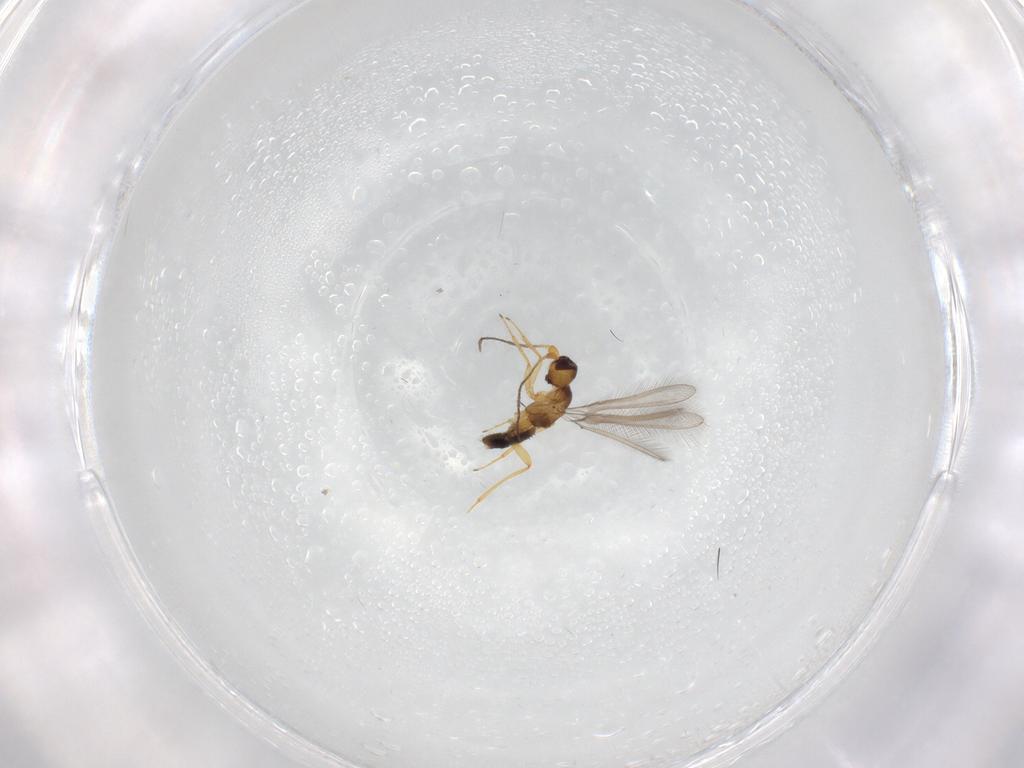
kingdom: Animalia
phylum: Arthropoda
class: Insecta
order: Hymenoptera
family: Mymaridae
